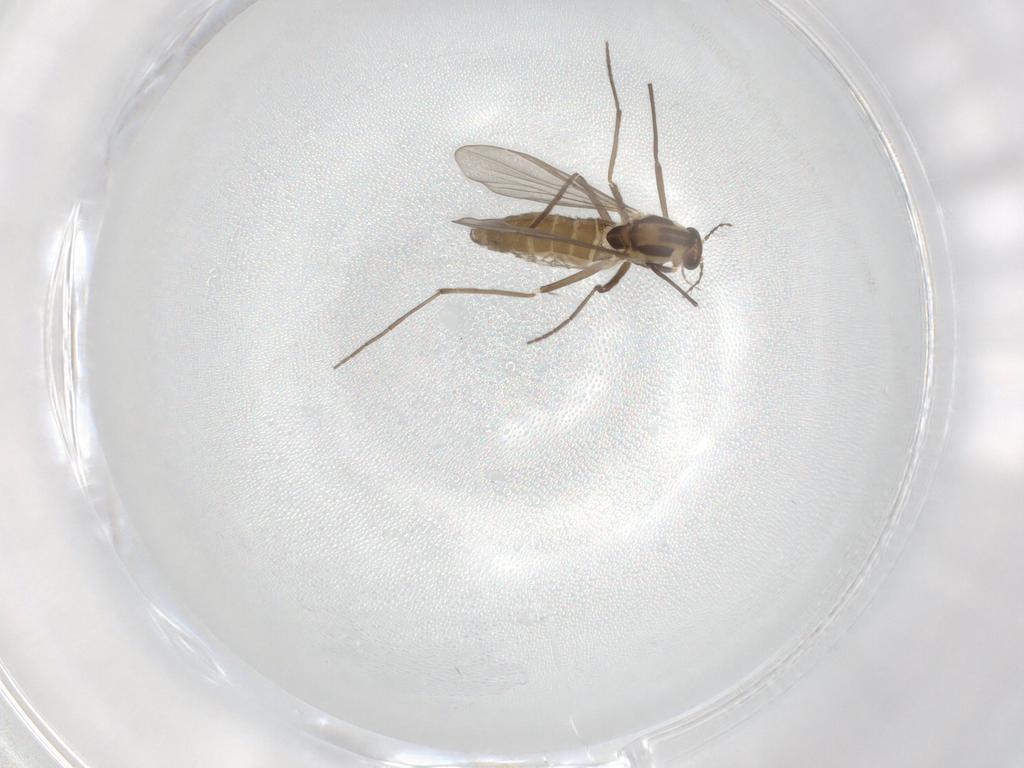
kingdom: Animalia
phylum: Arthropoda
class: Insecta
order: Diptera
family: Chironomidae
